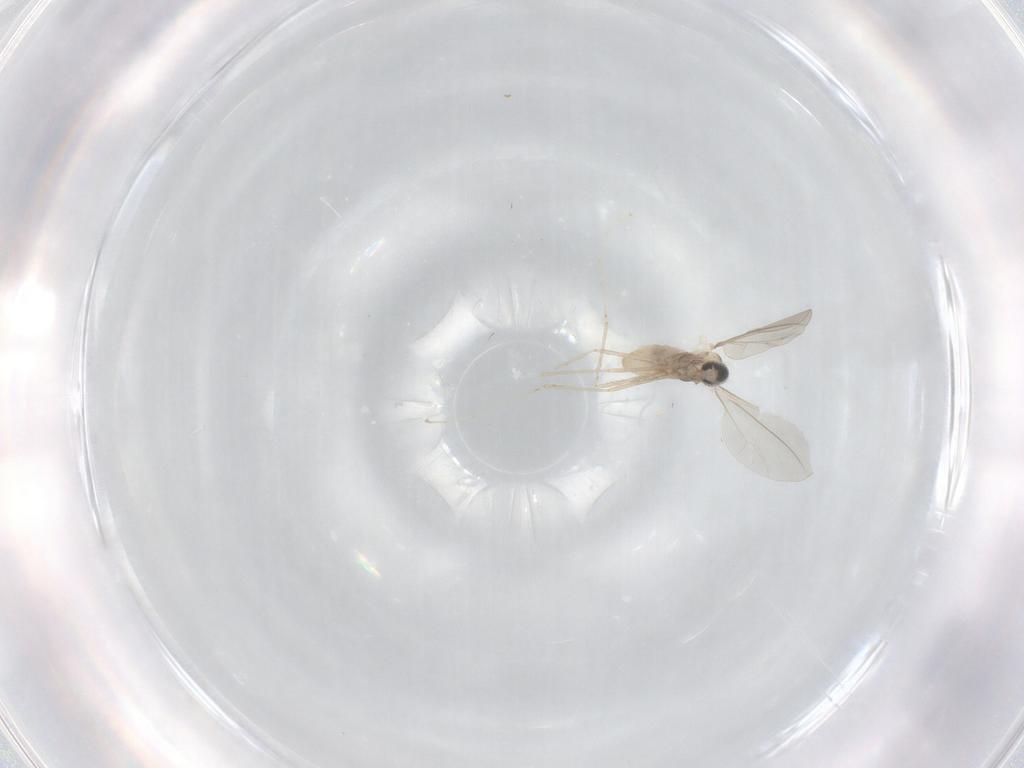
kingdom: Animalia
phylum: Arthropoda
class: Insecta
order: Diptera
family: Cecidomyiidae
